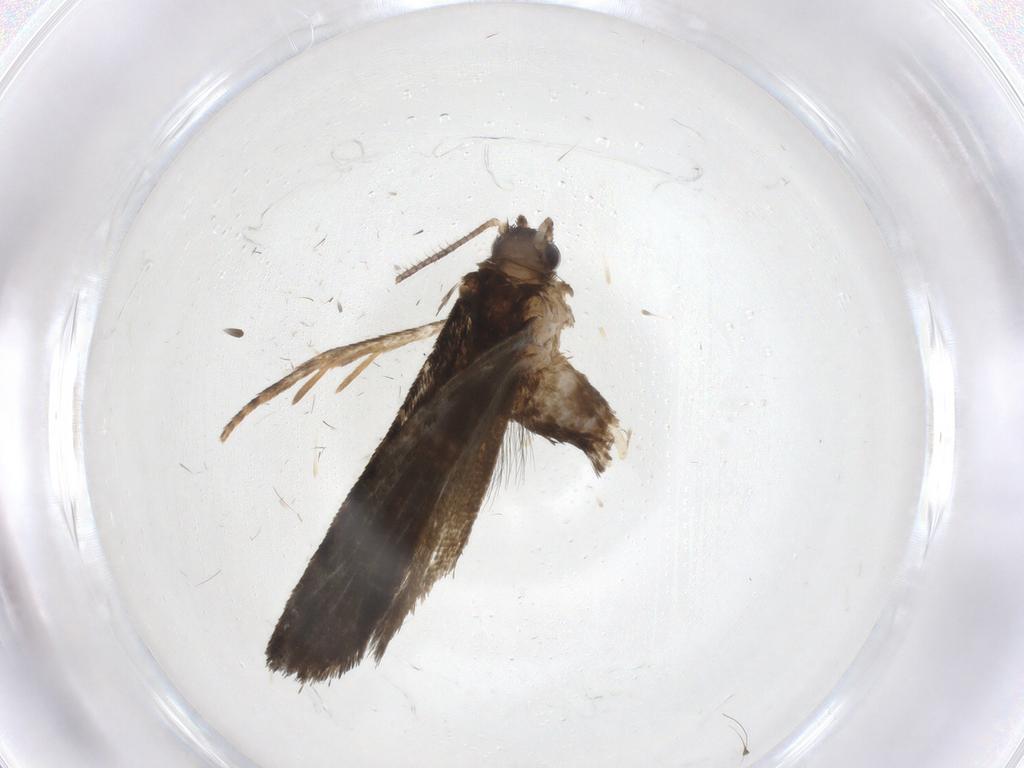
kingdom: Animalia
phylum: Arthropoda
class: Insecta
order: Lepidoptera
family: Tortricidae
